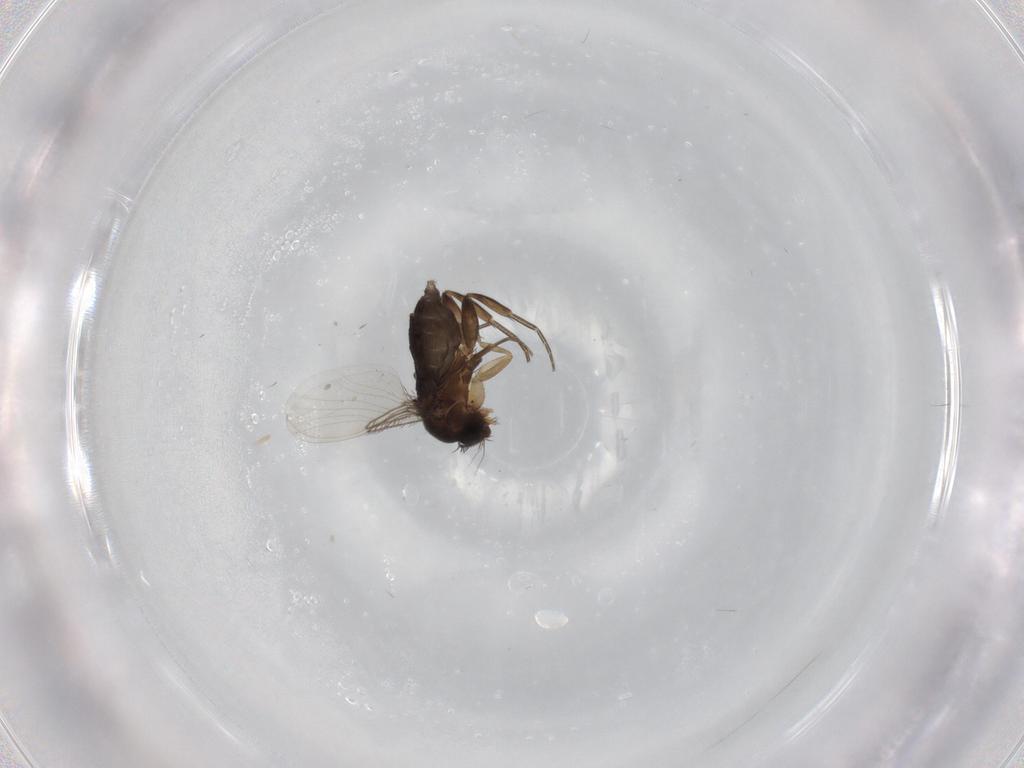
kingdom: Animalia
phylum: Arthropoda
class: Insecta
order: Diptera
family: Phoridae
